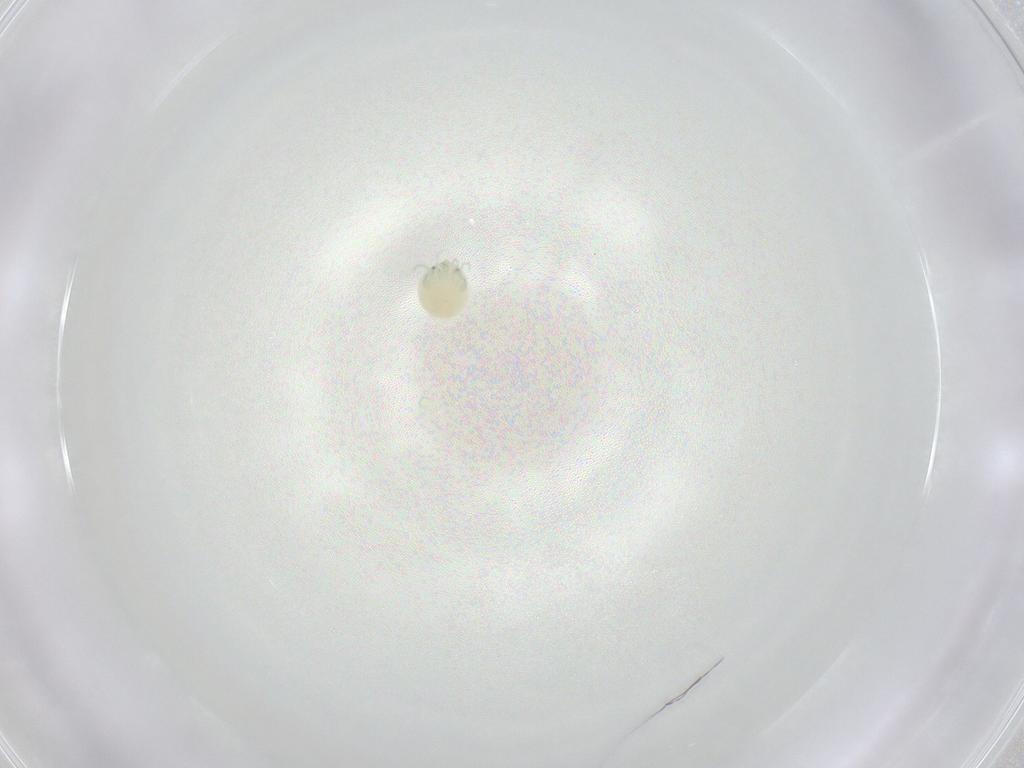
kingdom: Animalia
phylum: Arthropoda
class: Arachnida
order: Trombidiformes
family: Arrenuridae
